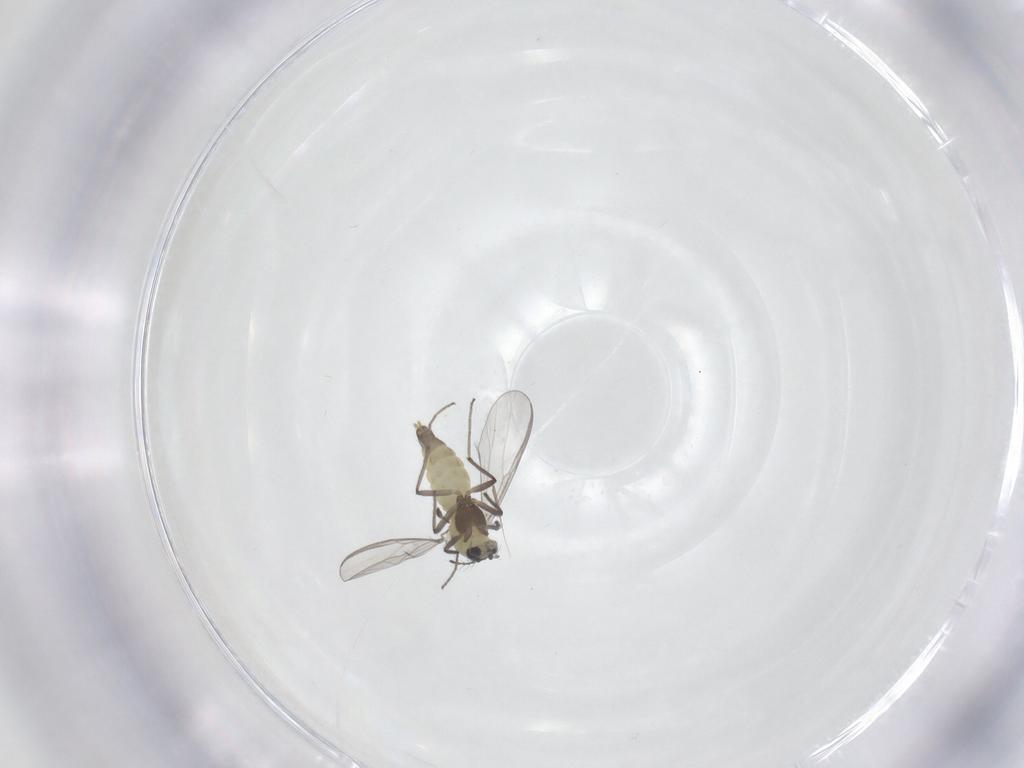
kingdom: Animalia
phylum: Arthropoda
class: Insecta
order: Diptera
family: Chironomidae
